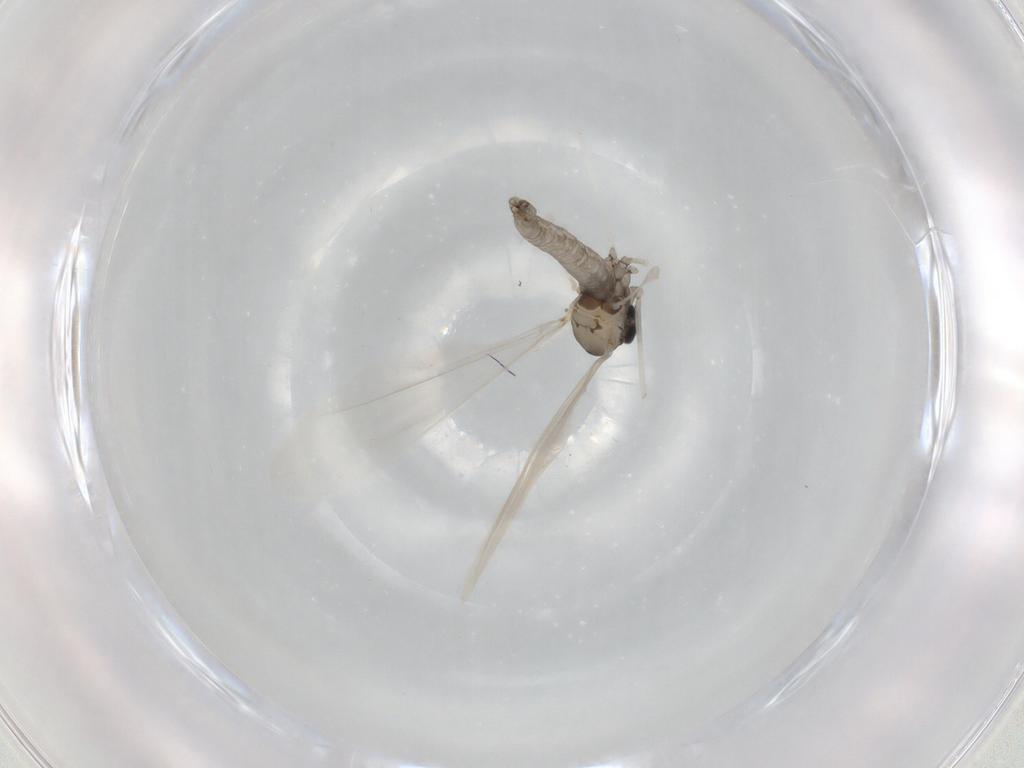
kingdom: Animalia
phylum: Arthropoda
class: Insecta
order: Diptera
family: Cecidomyiidae
